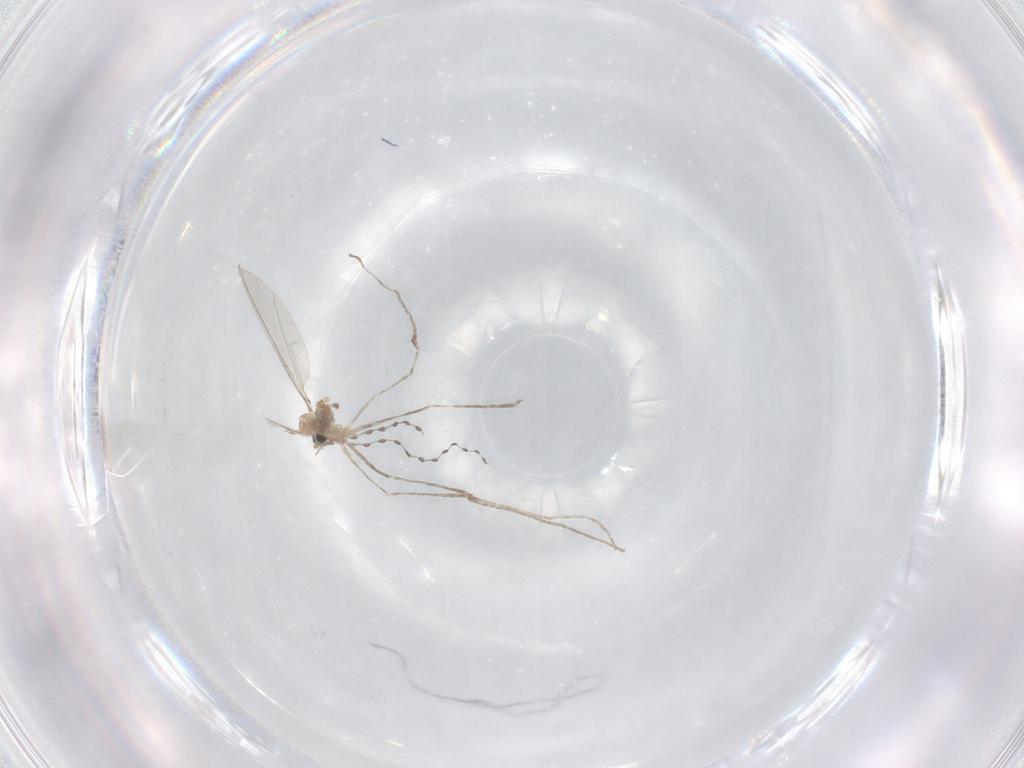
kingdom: Animalia
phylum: Arthropoda
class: Insecta
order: Diptera
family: Cecidomyiidae
